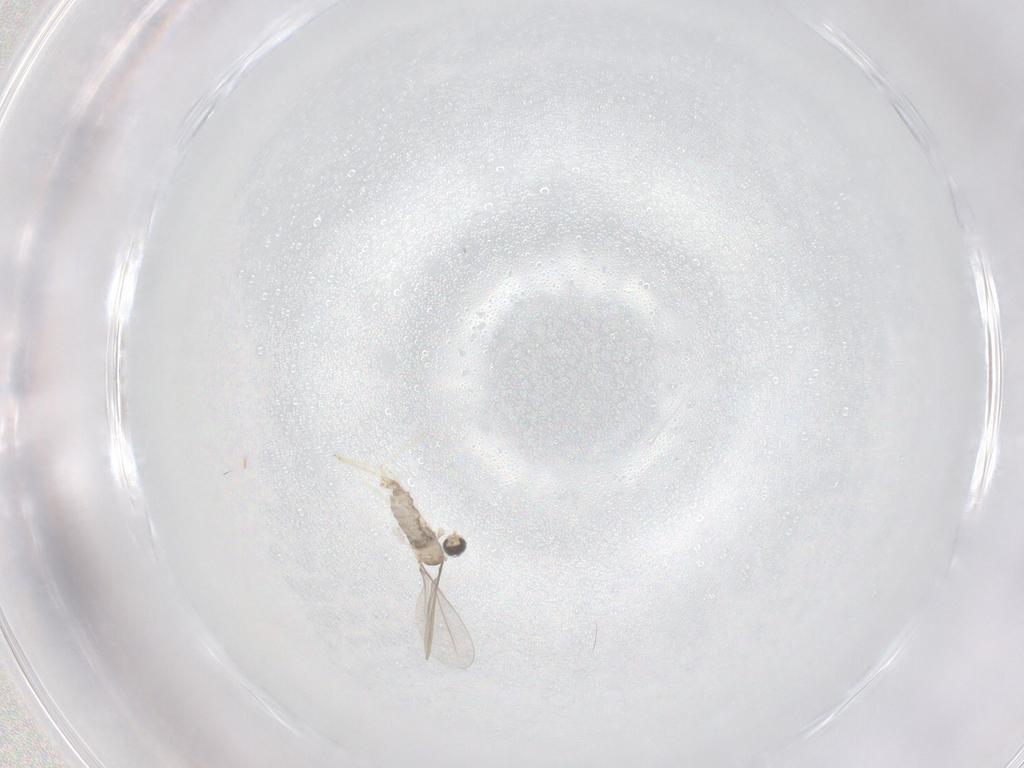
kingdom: Animalia
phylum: Arthropoda
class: Insecta
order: Diptera
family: Cecidomyiidae
